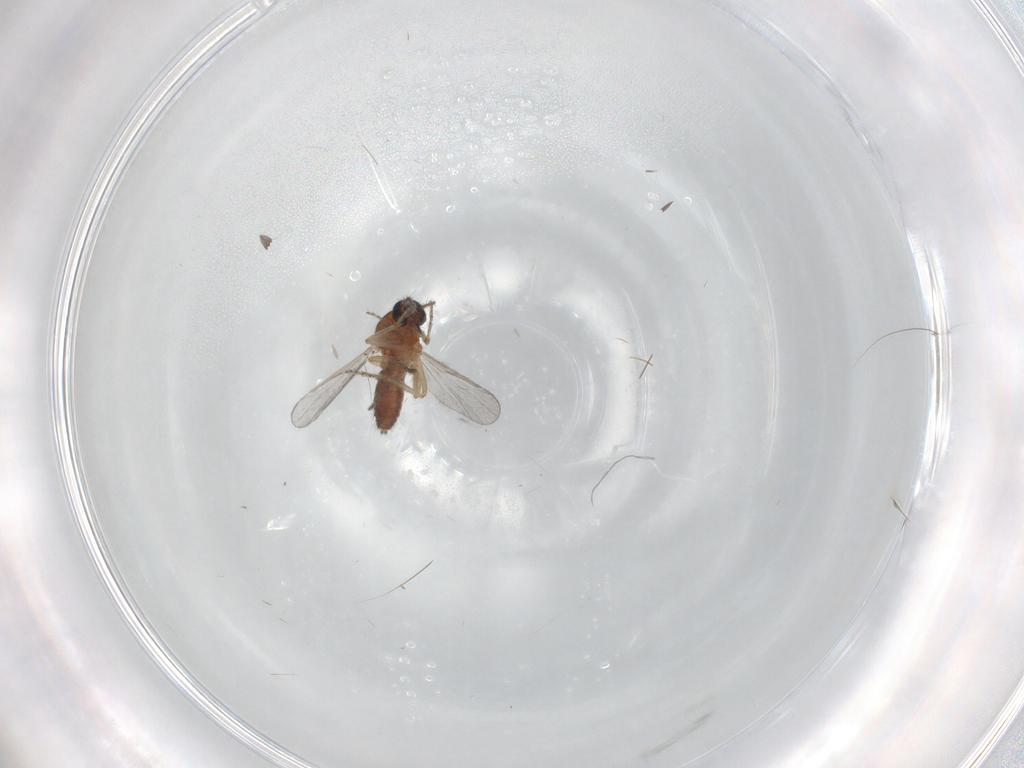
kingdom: Animalia
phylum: Arthropoda
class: Insecta
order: Diptera
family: Ceratopogonidae
